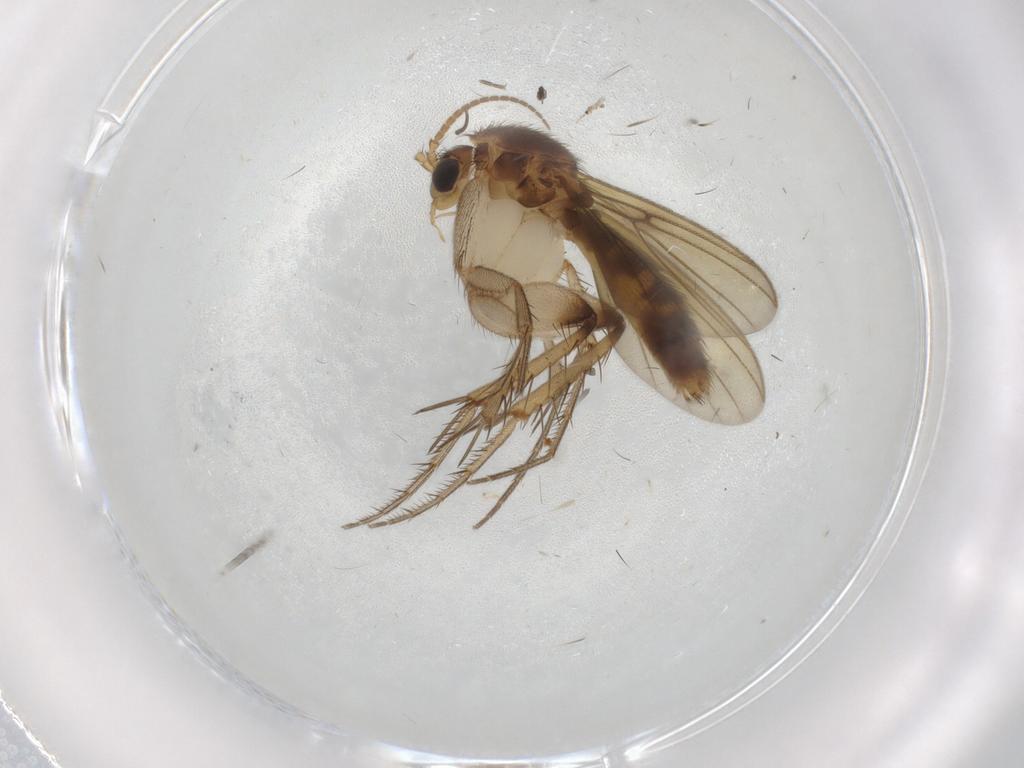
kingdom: Animalia
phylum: Arthropoda
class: Insecta
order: Diptera
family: Mycetophilidae
